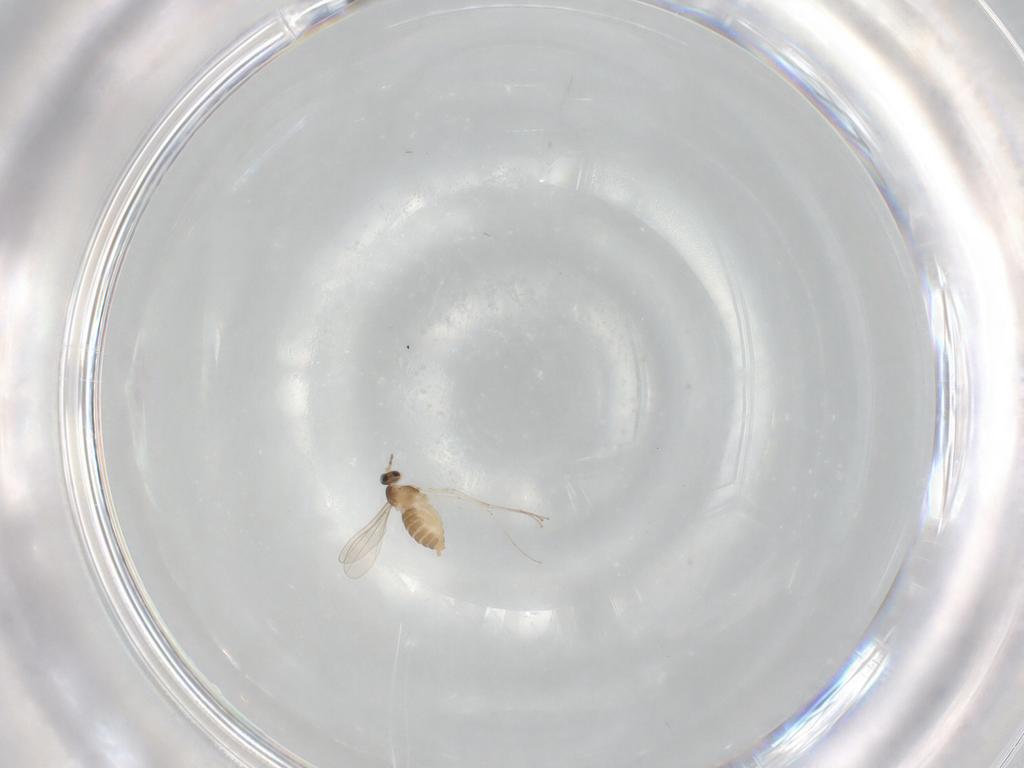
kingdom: Animalia
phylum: Arthropoda
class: Insecta
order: Diptera
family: Cecidomyiidae
